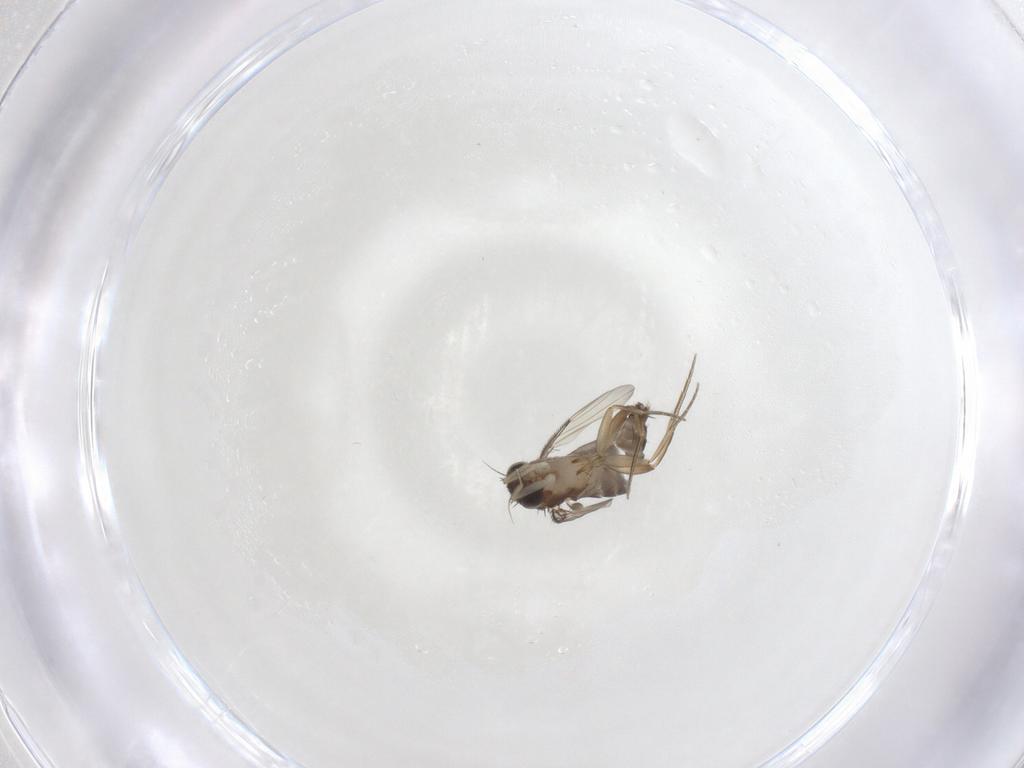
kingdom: Animalia
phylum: Arthropoda
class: Insecta
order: Diptera
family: Phoridae
